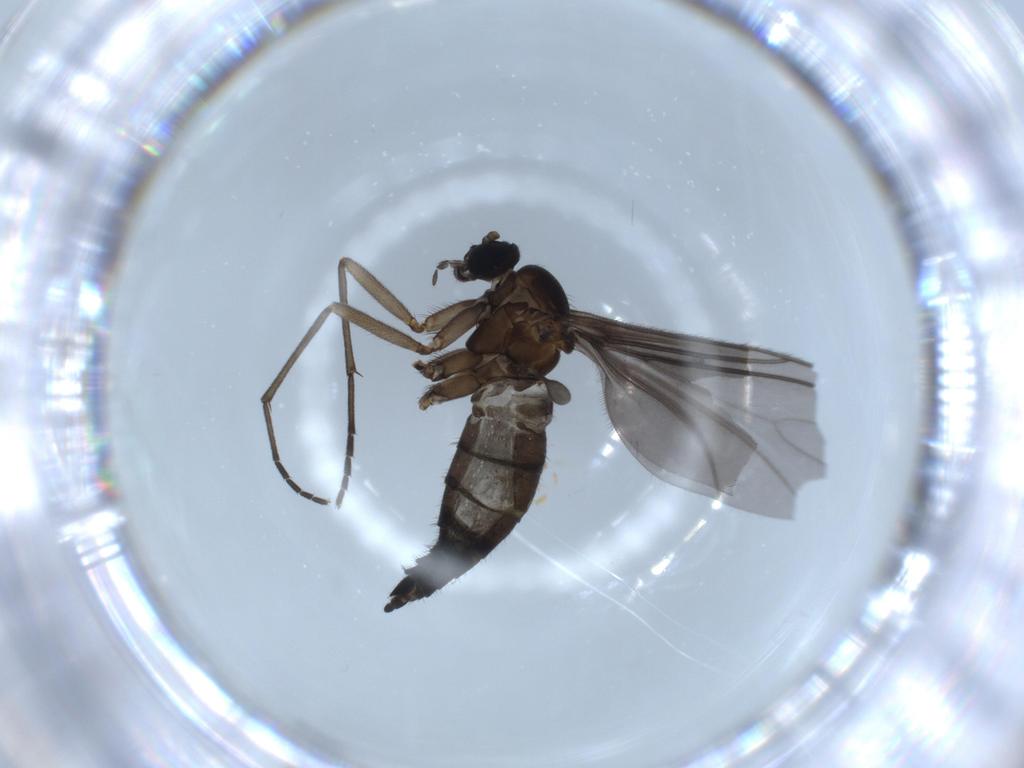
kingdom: Animalia
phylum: Arthropoda
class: Insecta
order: Diptera
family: Sciaridae
